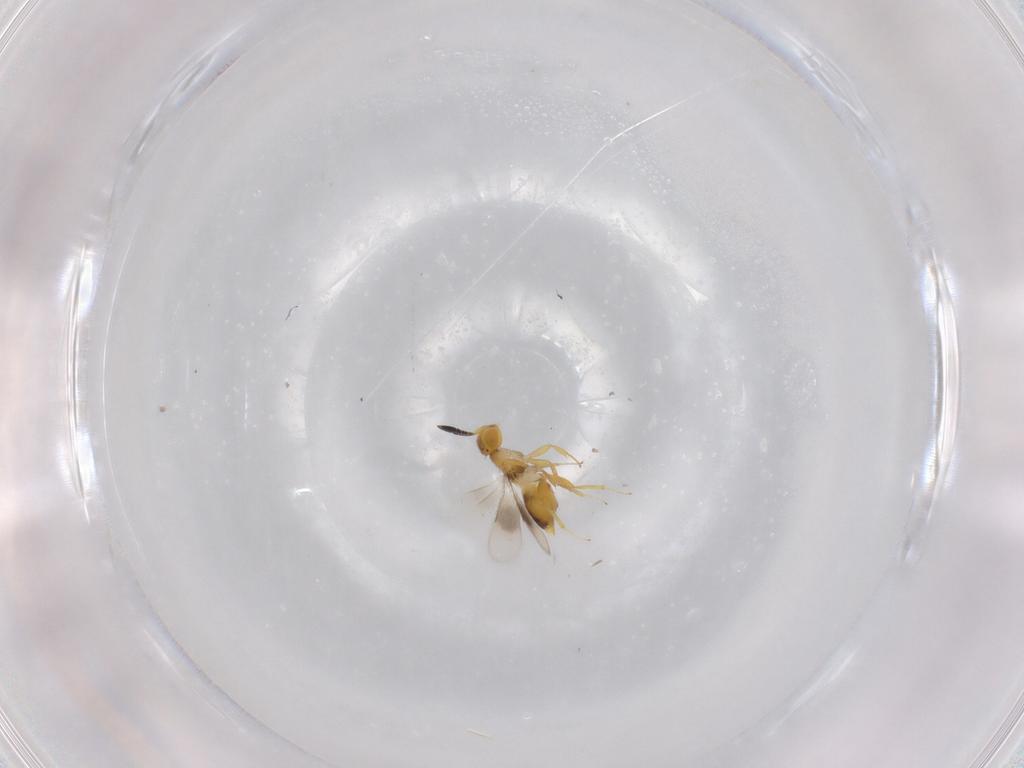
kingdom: Animalia
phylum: Arthropoda
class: Insecta
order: Hymenoptera
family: Encyrtidae
